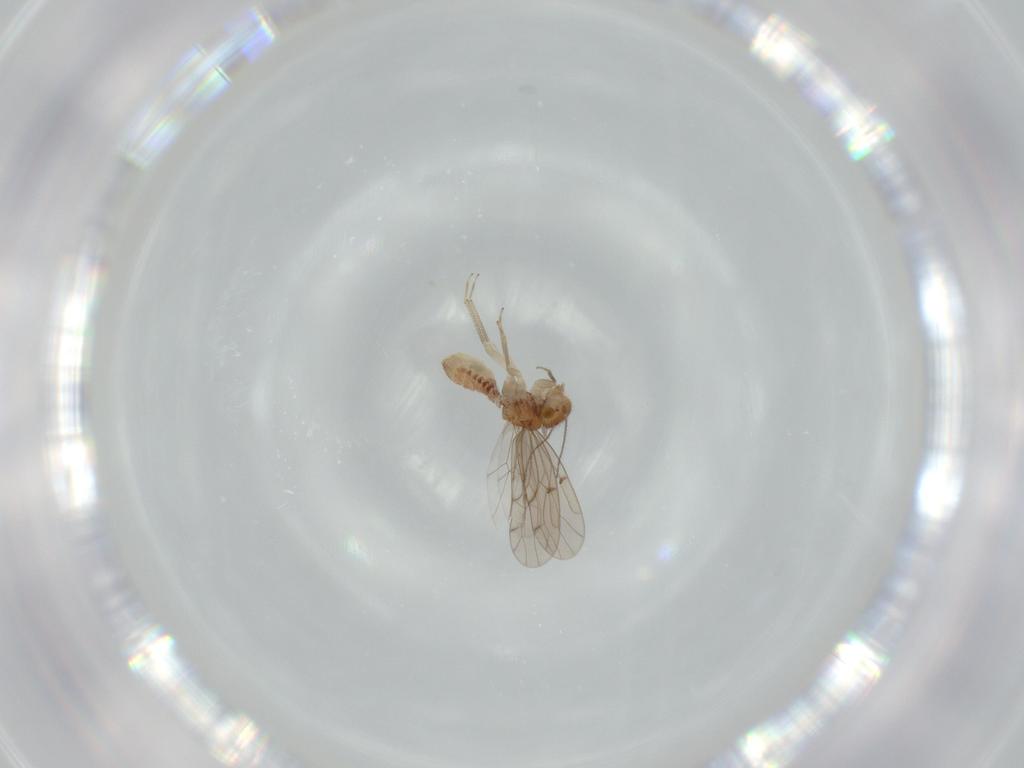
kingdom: Animalia
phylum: Arthropoda
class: Insecta
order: Psocodea
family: Ectopsocidae
